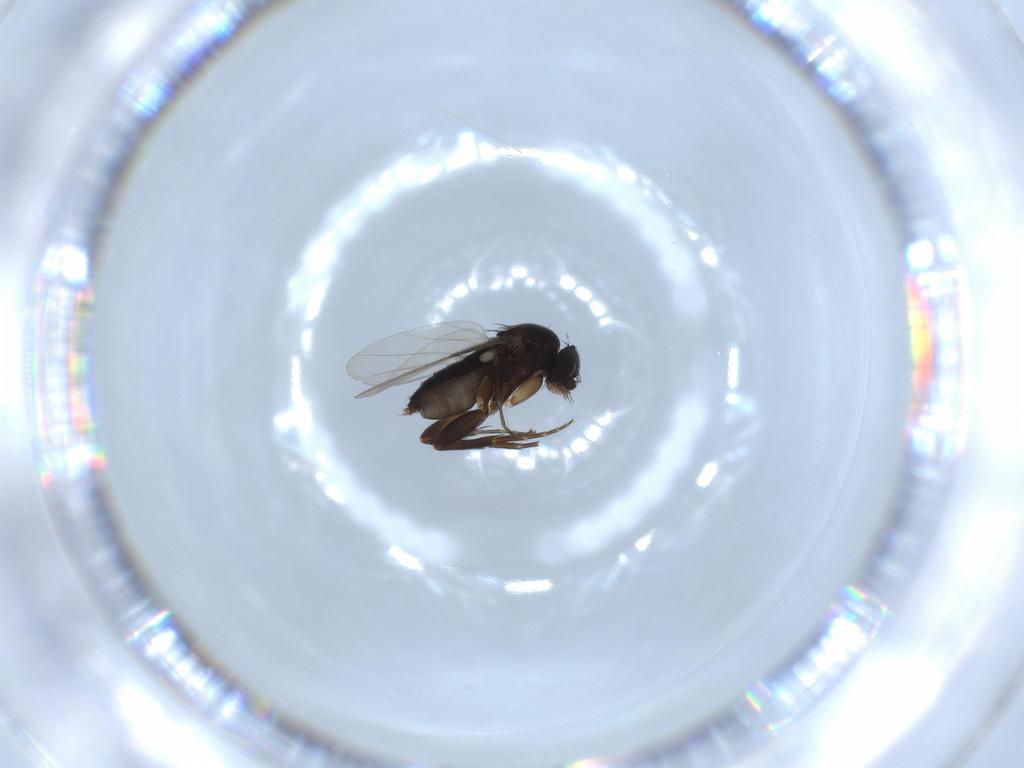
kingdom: Animalia
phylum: Arthropoda
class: Insecta
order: Diptera
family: Phoridae
